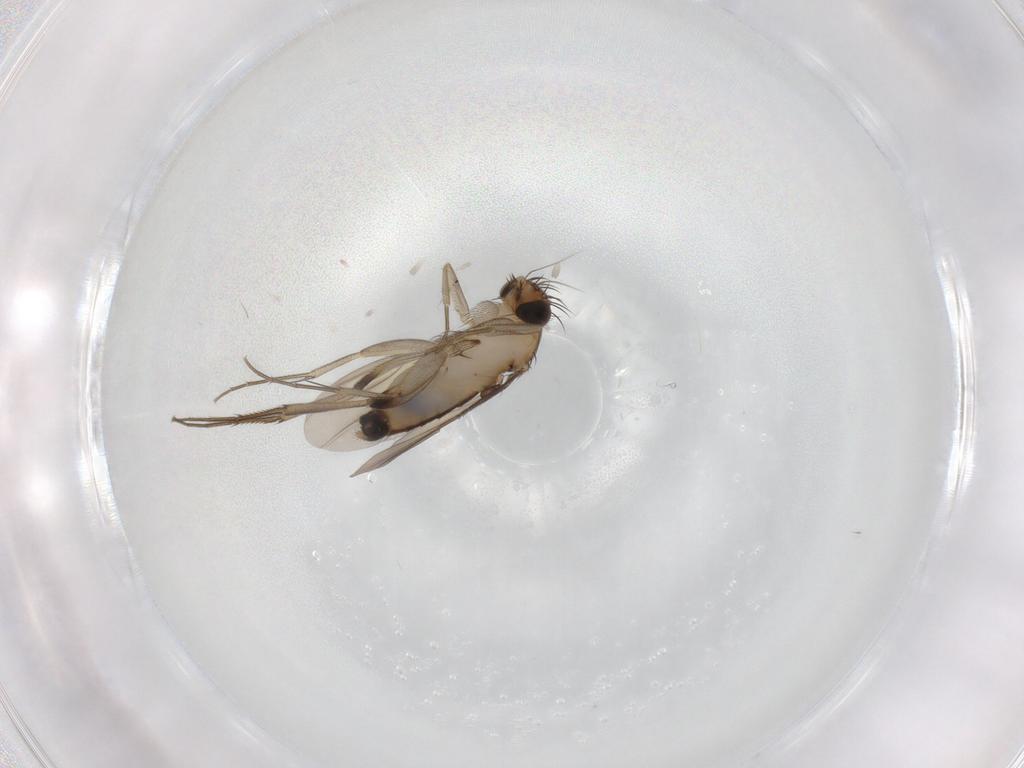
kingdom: Animalia
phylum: Arthropoda
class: Insecta
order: Diptera
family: Phoridae
